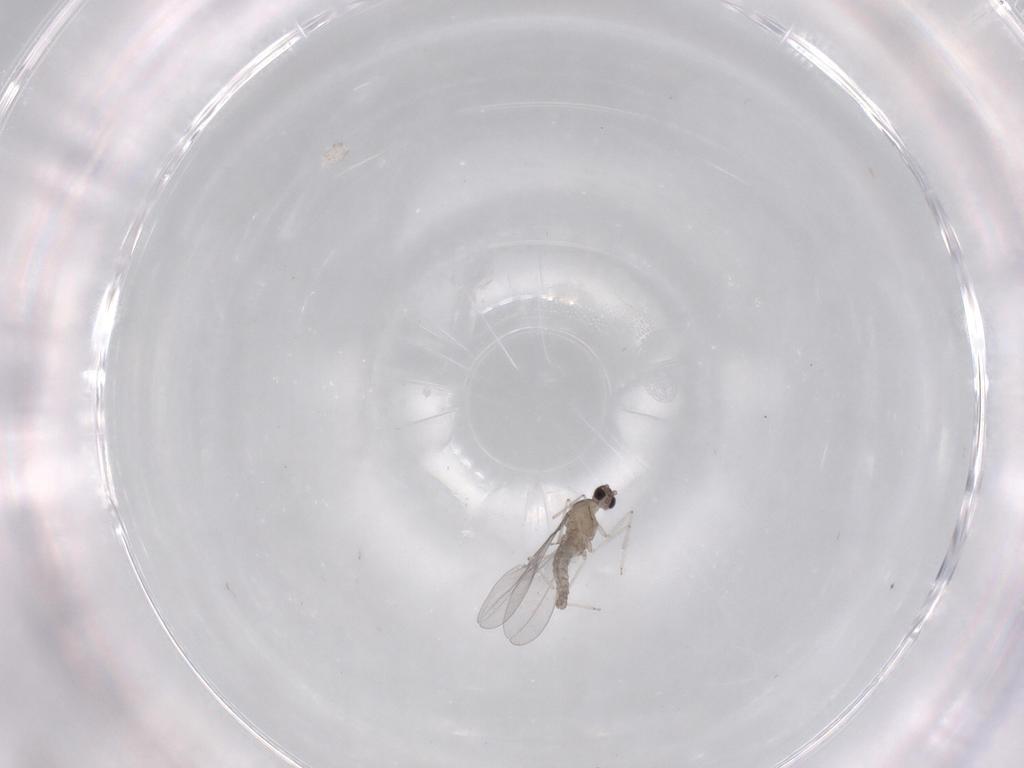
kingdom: Animalia
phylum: Arthropoda
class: Insecta
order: Diptera
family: Cecidomyiidae
